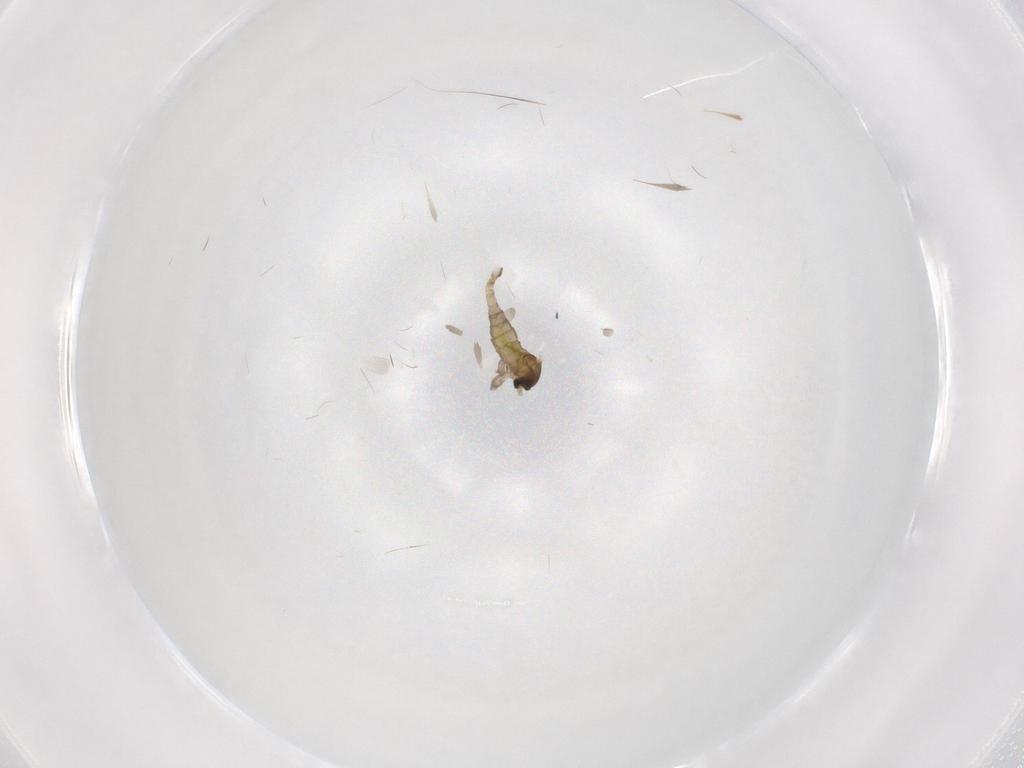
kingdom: Animalia
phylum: Arthropoda
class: Insecta
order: Diptera
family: Cecidomyiidae
